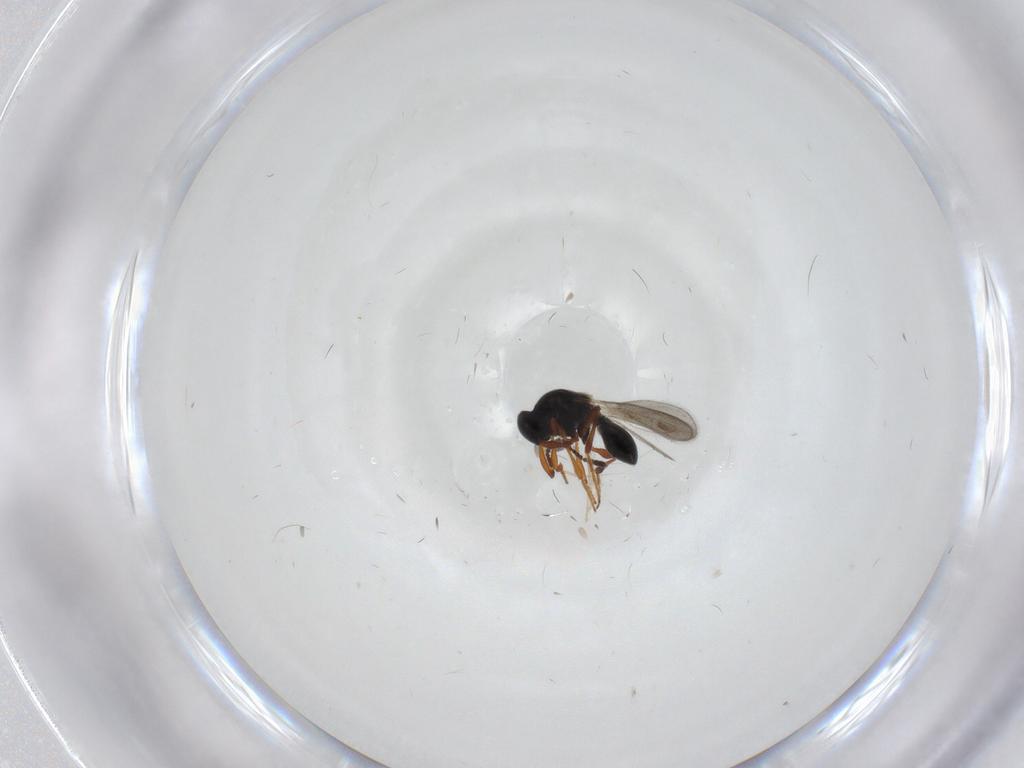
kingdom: Animalia
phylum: Arthropoda
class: Insecta
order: Hymenoptera
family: Platygastridae
